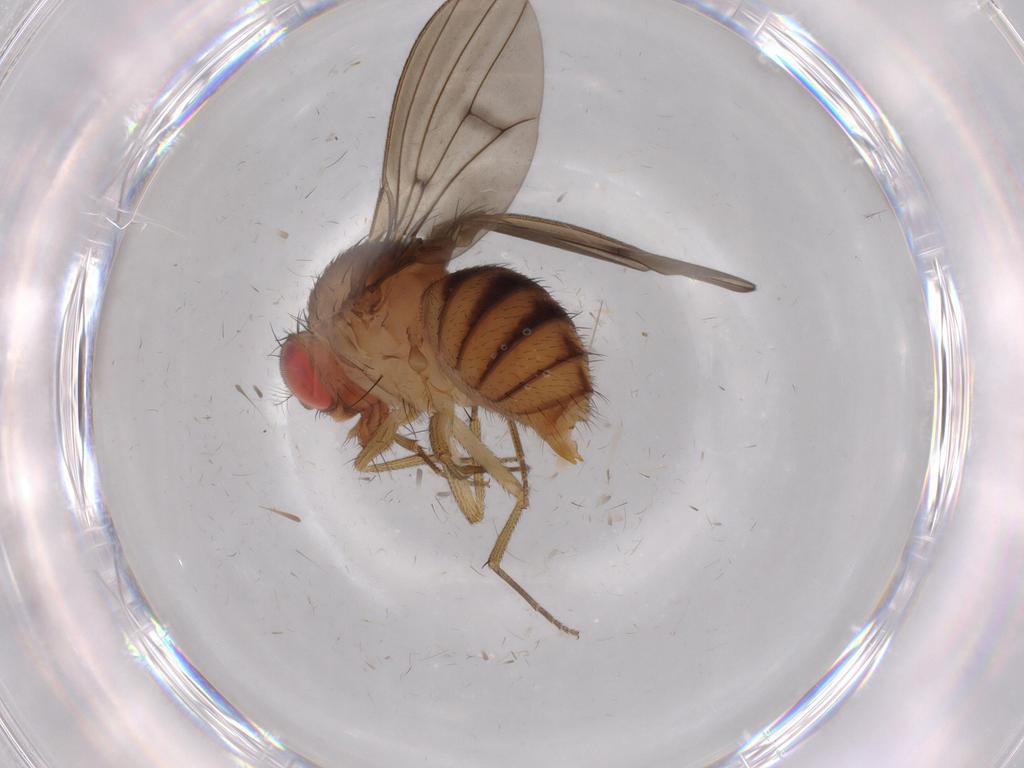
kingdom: Animalia
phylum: Arthropoda
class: Insecta
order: Diptera
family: Drosophilidae
